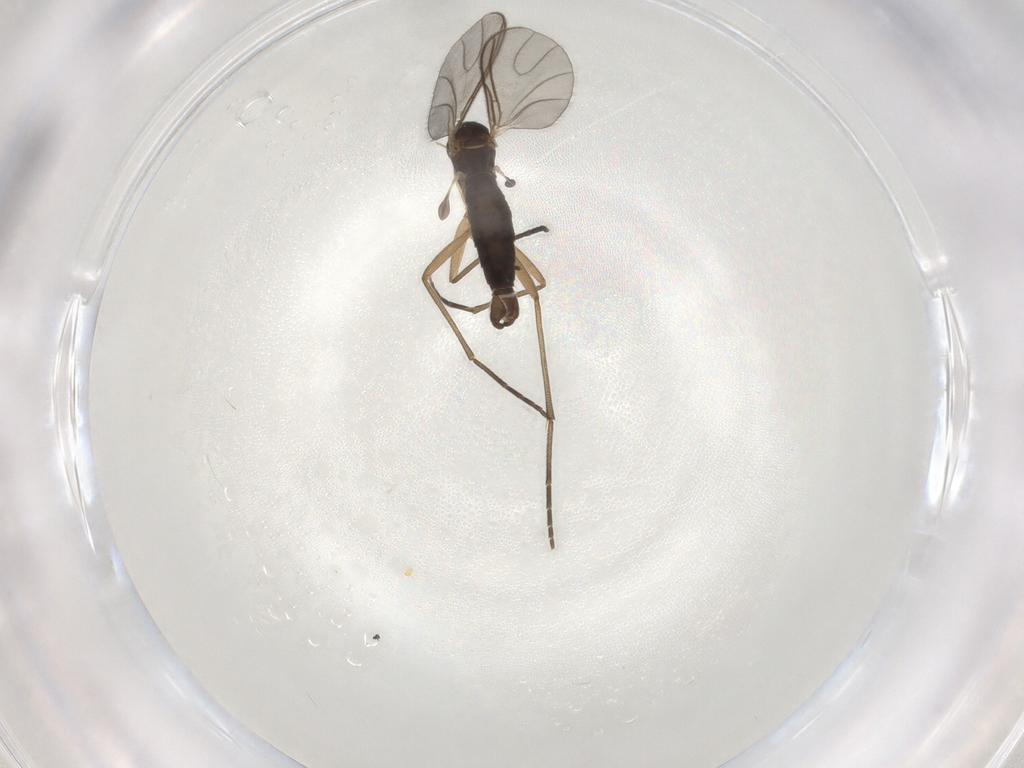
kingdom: Animalia
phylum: Arthropoda
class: Insecta
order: Diptera
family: Sciaridae
